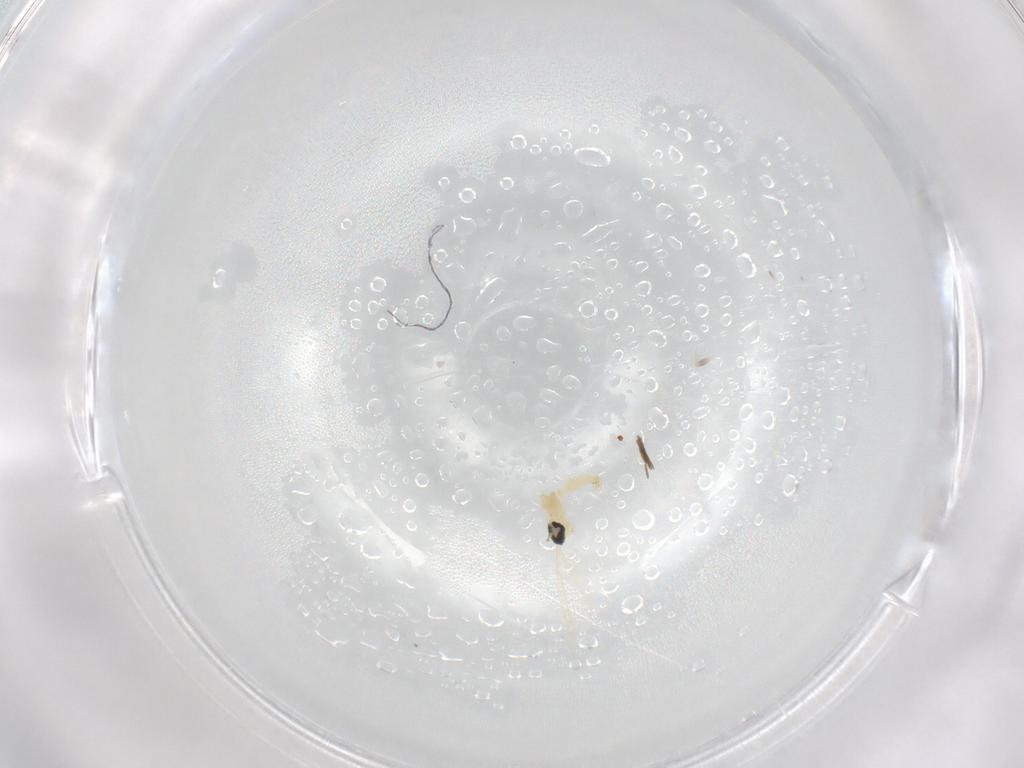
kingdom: Animalia
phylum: Arthropoda
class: Insecta
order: Diptera
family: Cecidomyiidae
